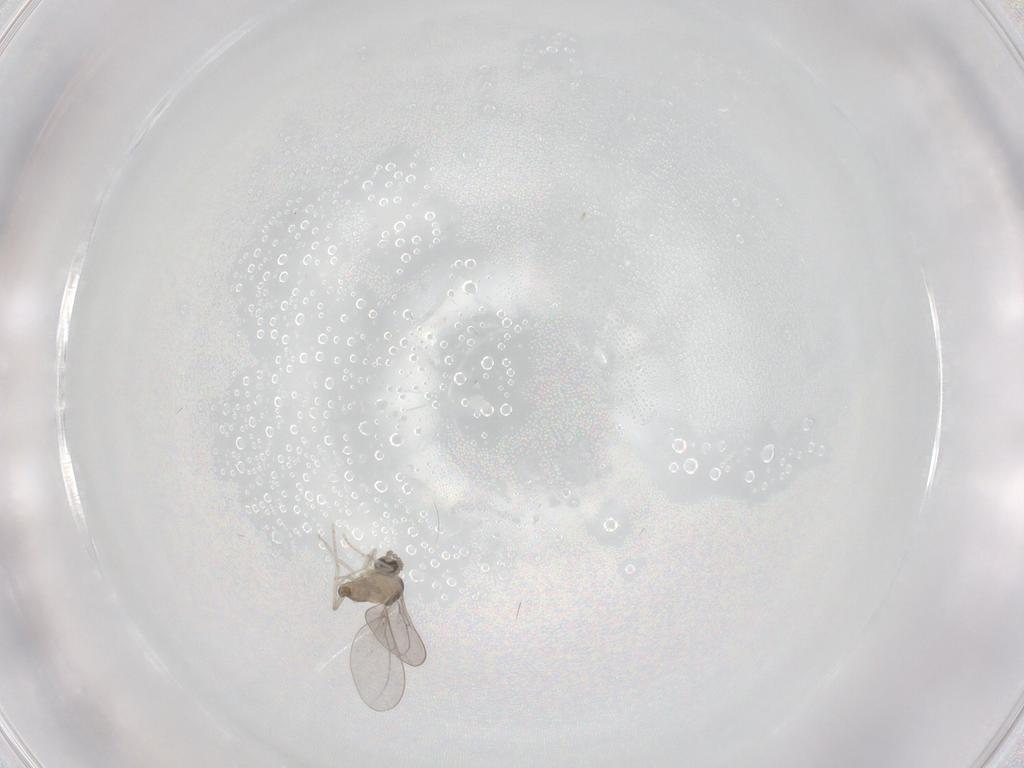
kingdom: Animalia
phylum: Arthropoda
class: Insecta
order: Diptera
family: Cecidomyiidae
